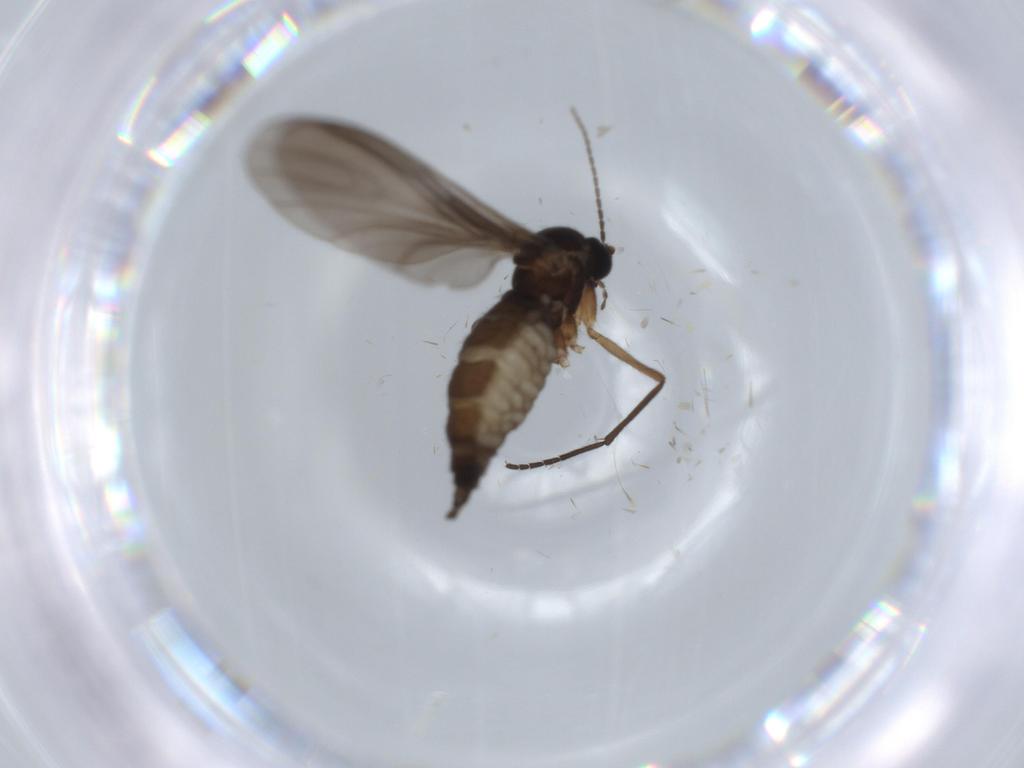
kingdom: Animalia
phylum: Arthropoda
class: Insecta
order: Diptera
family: Sciaridae
